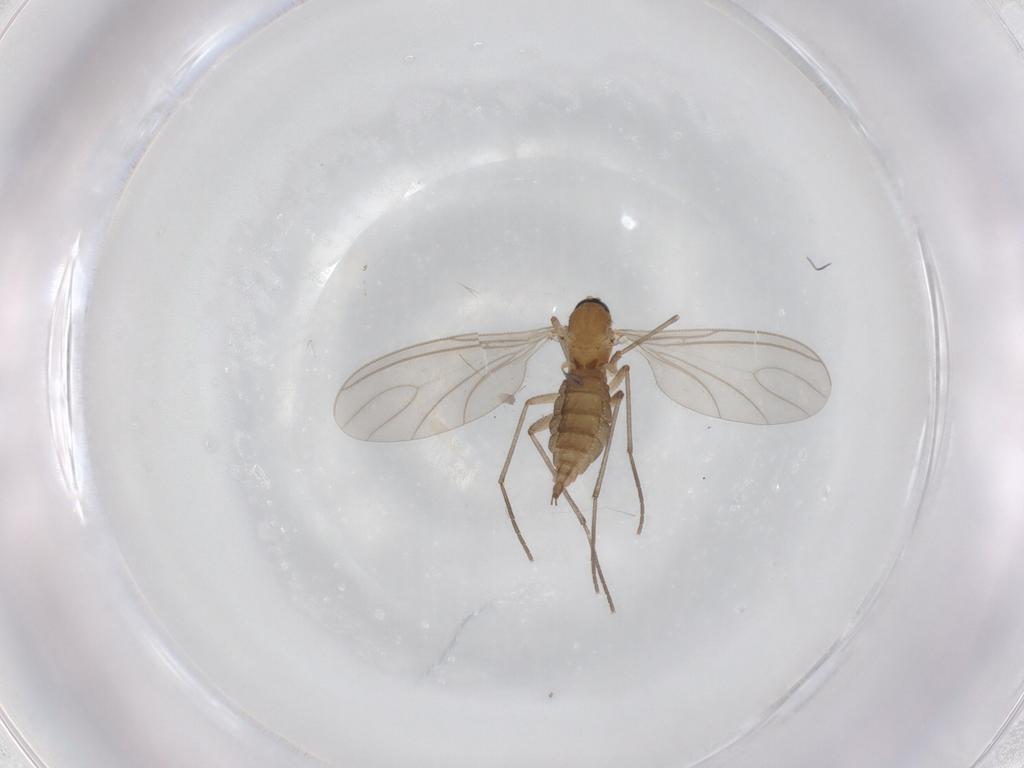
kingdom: Animalia
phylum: Arthropoda
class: Insecta
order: Diptera
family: Sciaridae
